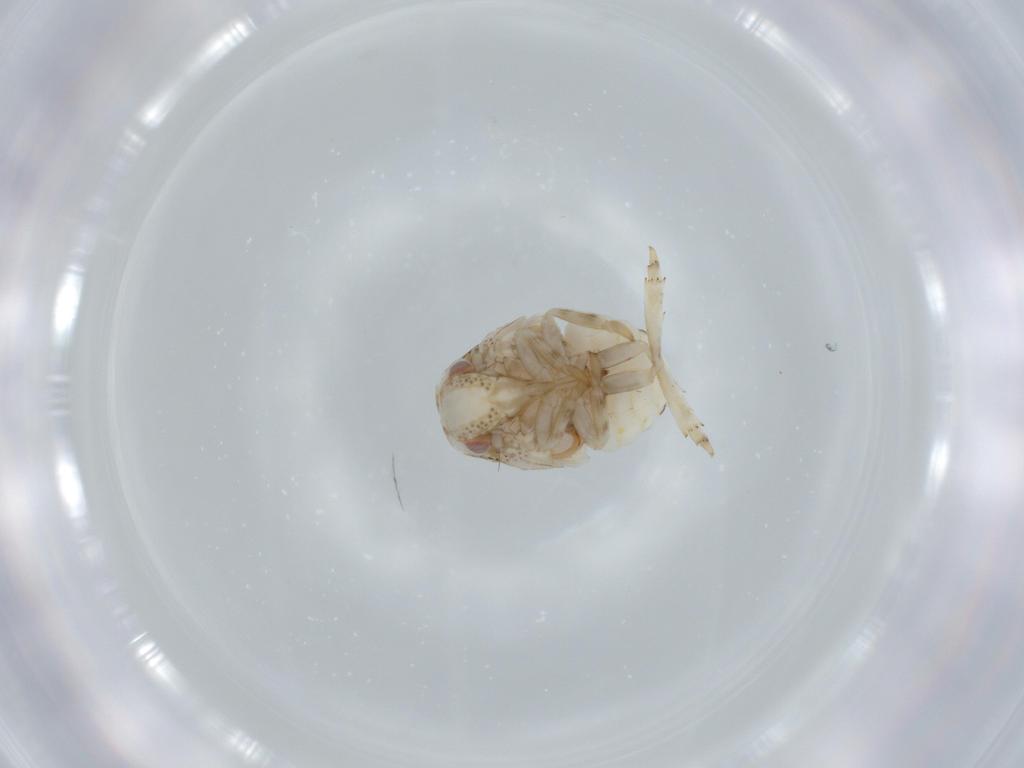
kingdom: Animalia
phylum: Arthropoda
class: Insecta
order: Hemiptera
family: Acanaloniidae
